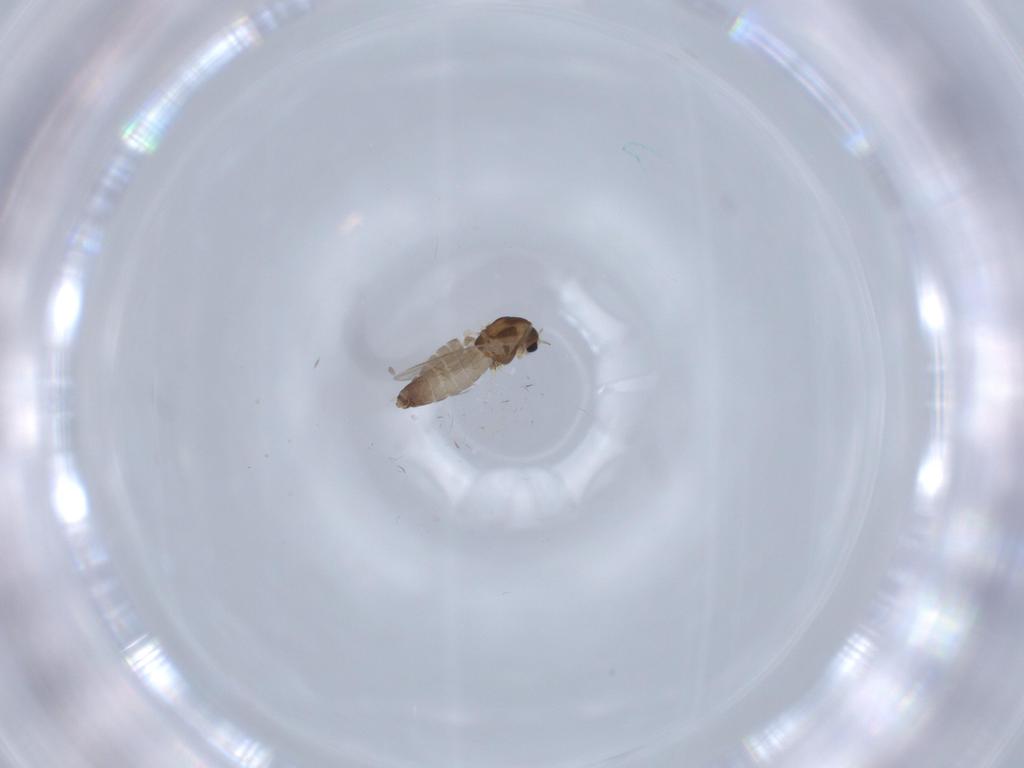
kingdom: Animalia
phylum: Arthropoda
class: Insecta
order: Diptera
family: Chironomidae
